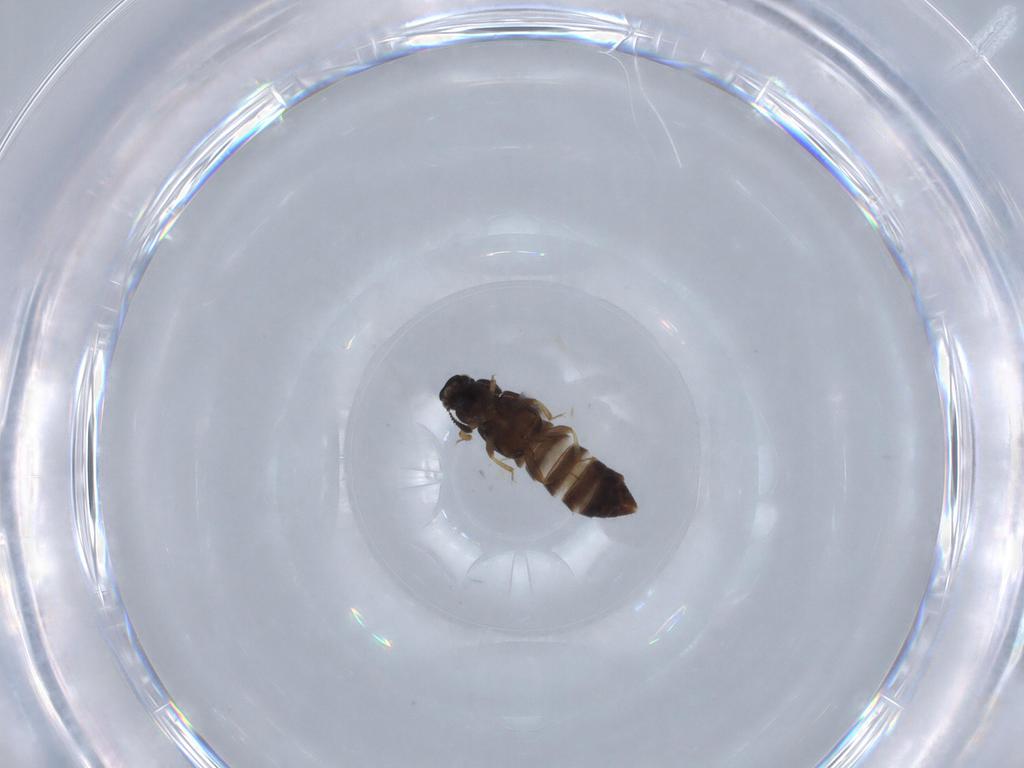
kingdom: Animalia
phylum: Arthropoda
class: Insecta
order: Coleoptera
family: Staphylinidae
